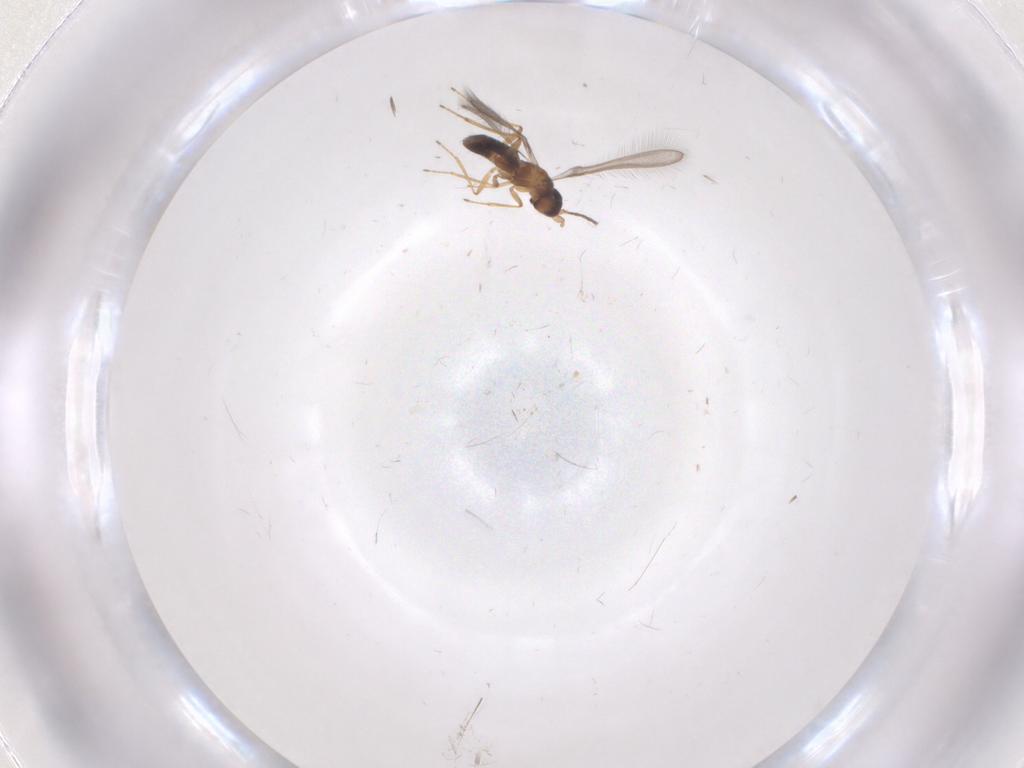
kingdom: Animalia
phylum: Arthropoda
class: Insecta
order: Hymenoptera
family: Mymaridae
